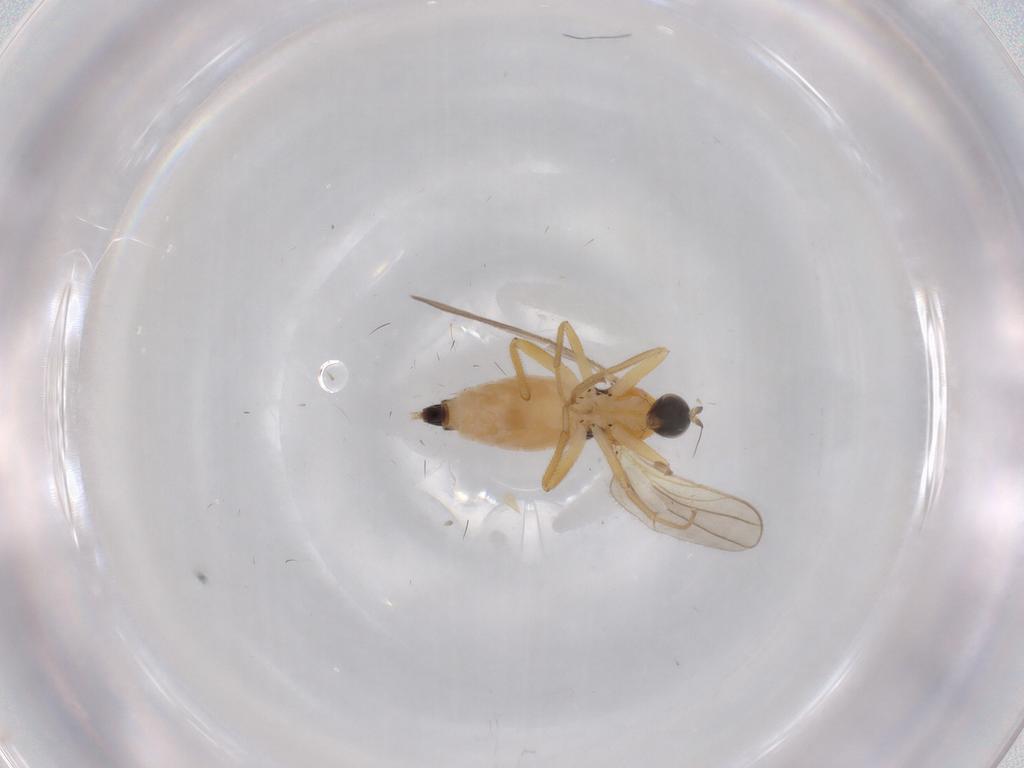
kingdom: Animalia
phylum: Arthropoda
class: Insecta
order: Diptera
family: Hybotidae
